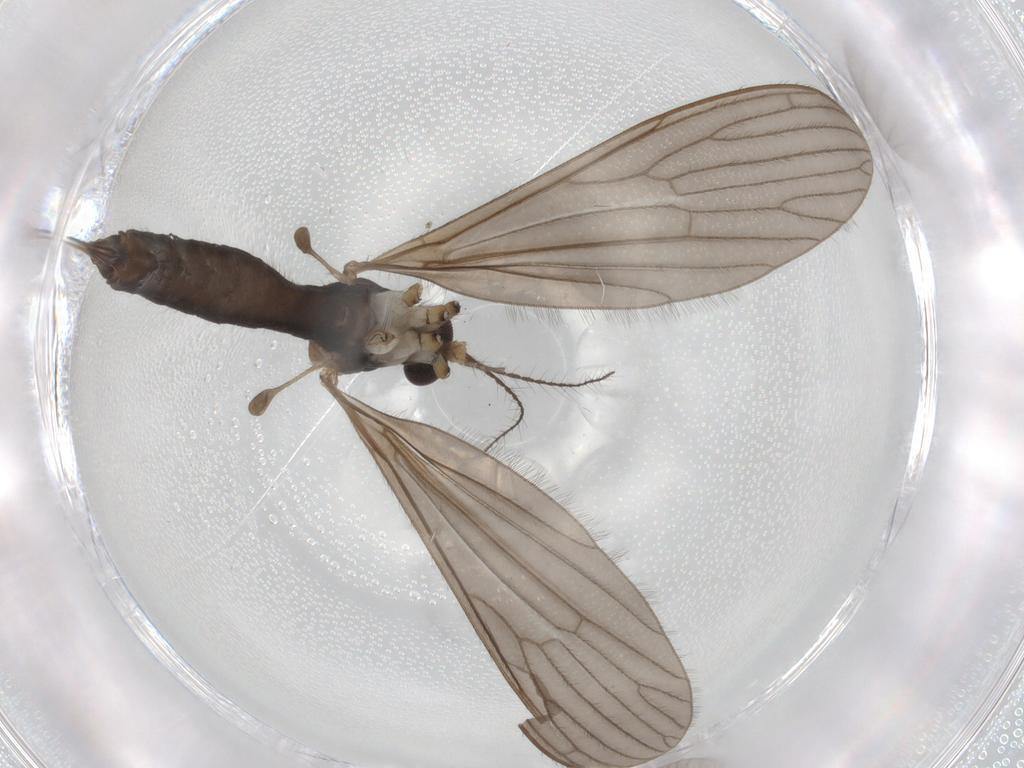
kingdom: Animalia
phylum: Arthropoda
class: Insecta
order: Diptera
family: Limoniidae
